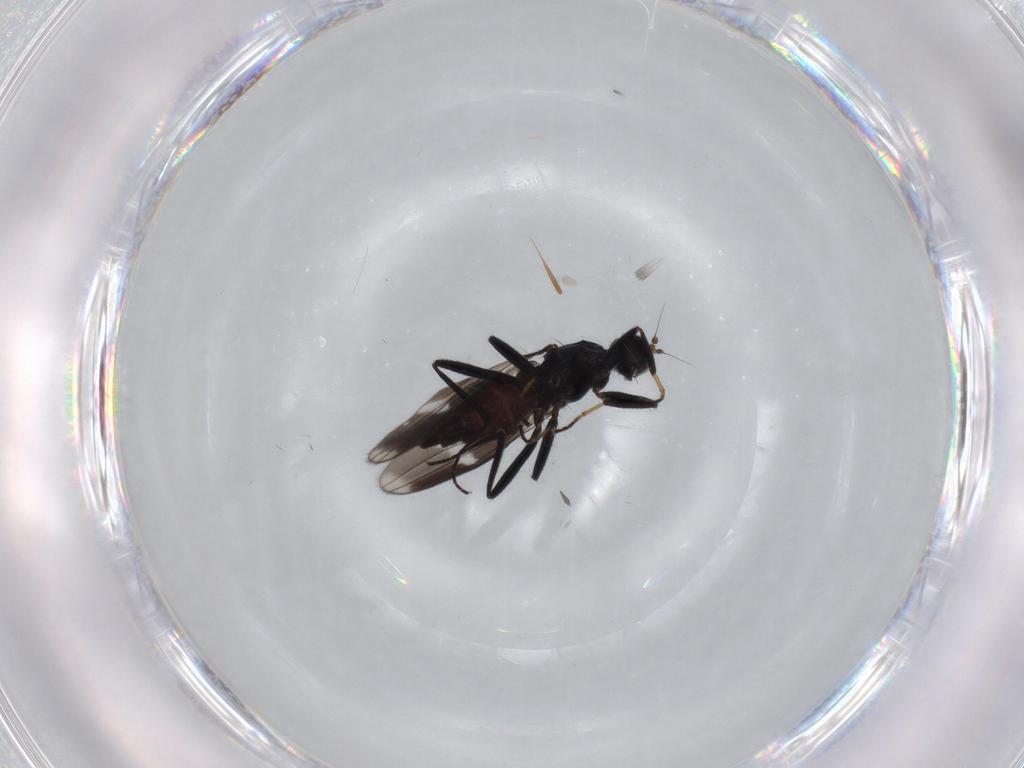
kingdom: Animalia
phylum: Arthropoda
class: Insecta
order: Diptera
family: Hybotidae
